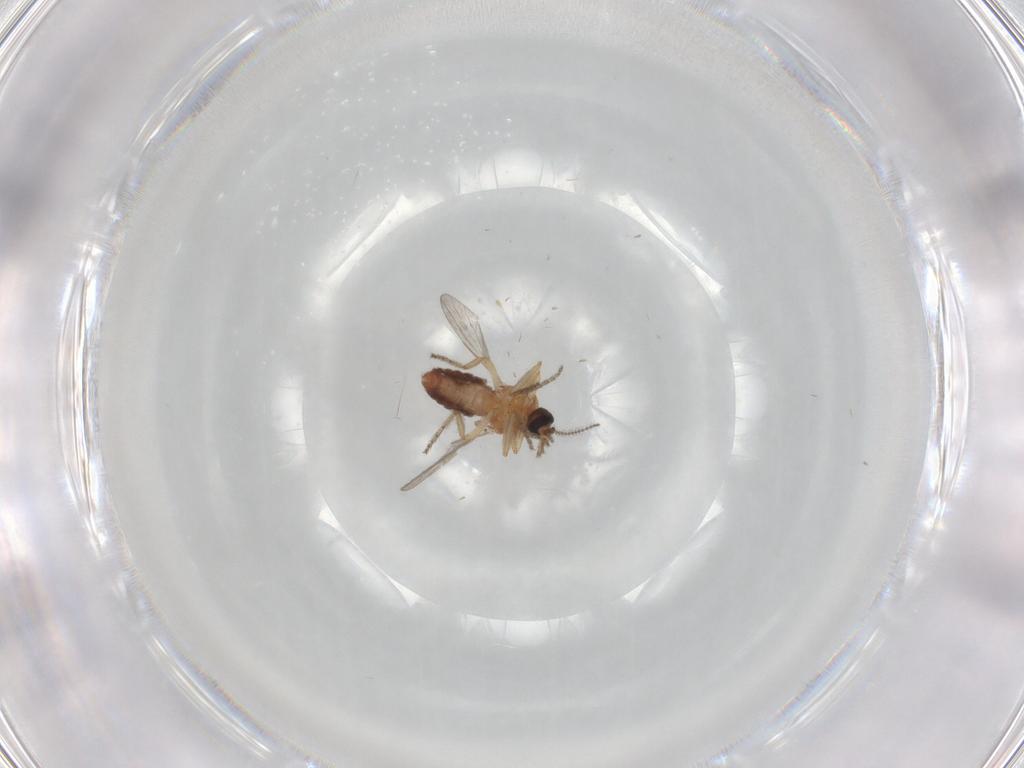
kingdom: Animalia
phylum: Arthropoda
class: Insecta
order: Diptera
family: Ceratopogonidae
